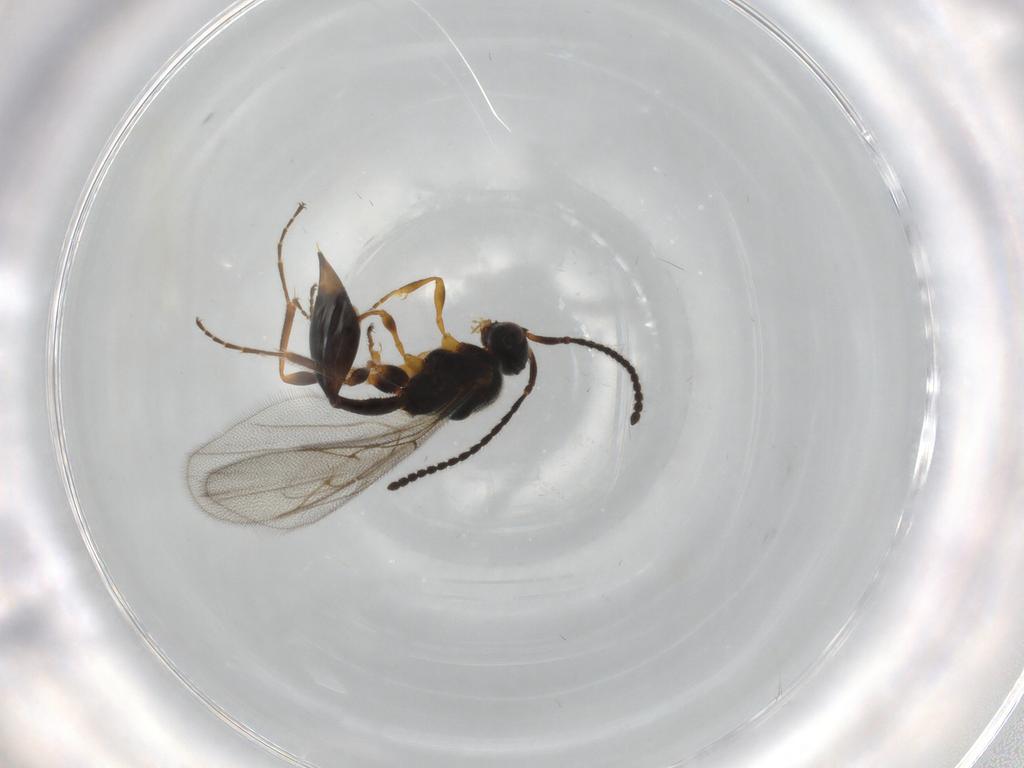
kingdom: Animalia
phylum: Arthropoda
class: Insecta
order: Hymenoptera
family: Diapriidae
